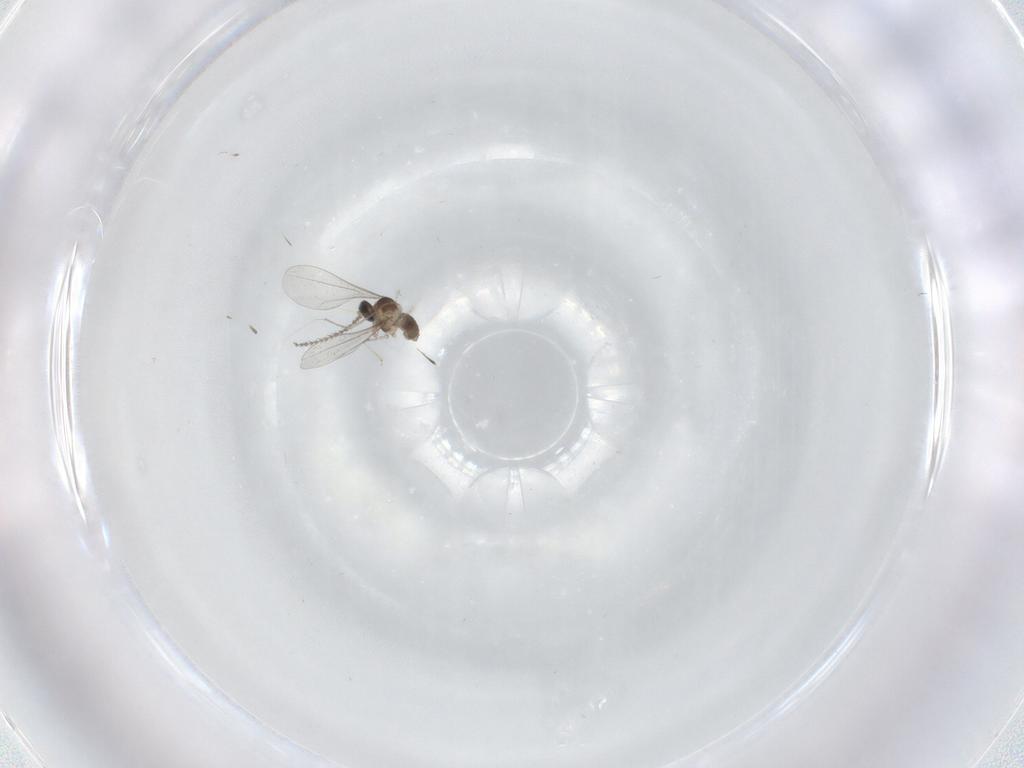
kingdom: Animalia
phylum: Arthropoda
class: Insecta
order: Diptera
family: Cecidomyiidae
